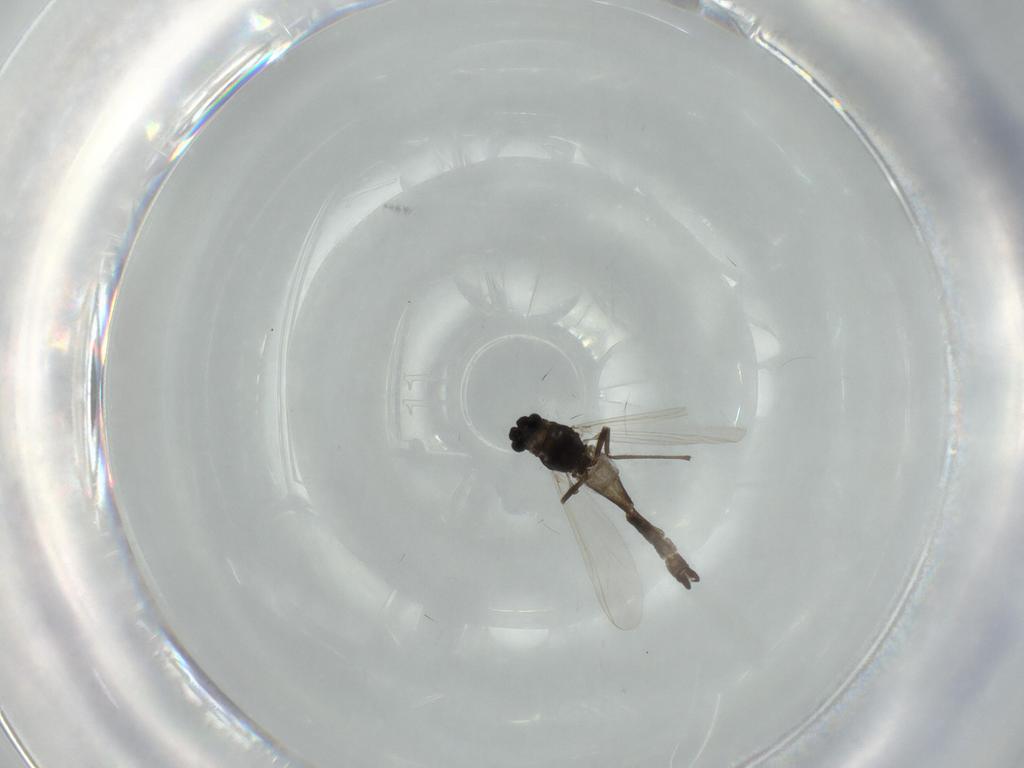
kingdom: Animalia
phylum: Arthropoda
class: Insecta
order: Diptera
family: Chironomidae
